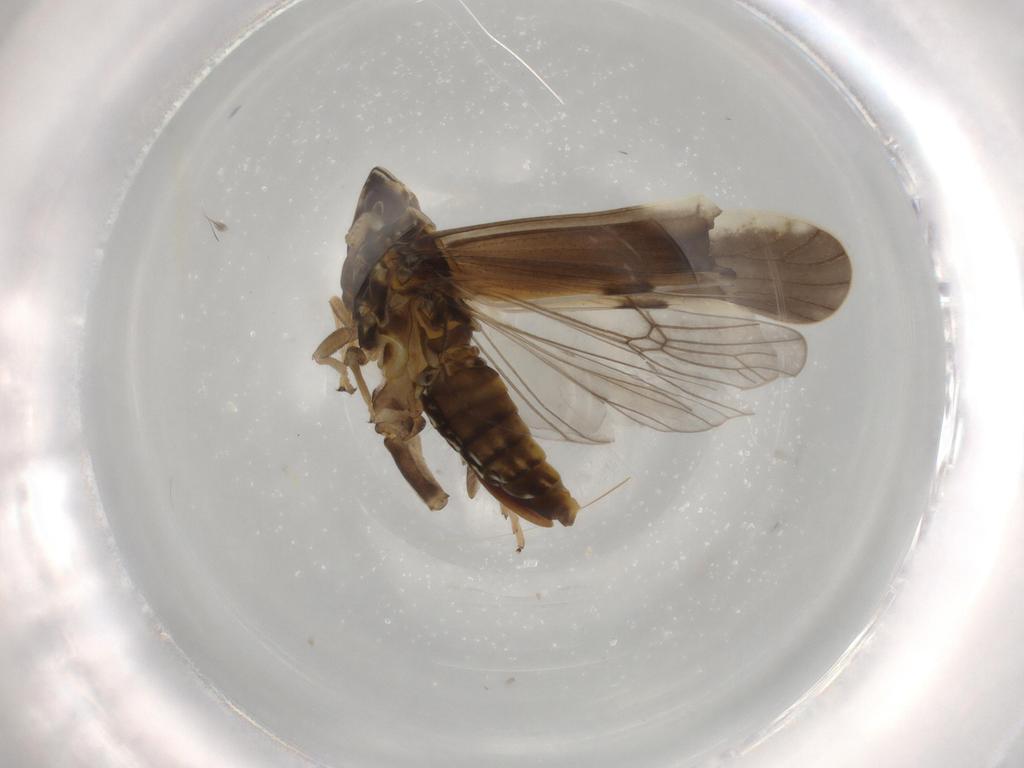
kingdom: Animalia
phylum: Arthropoda
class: Insecta
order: Hemiptera
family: Delphacidae
